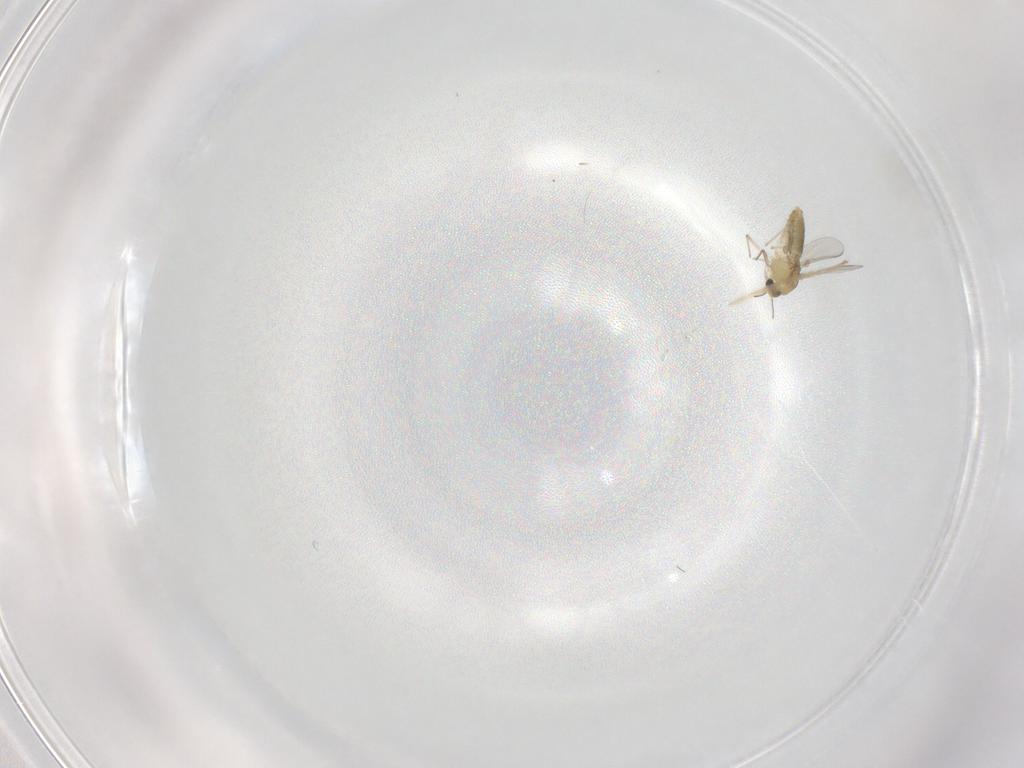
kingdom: Animalia
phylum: Arthropoda
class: Insecta
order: Diptera
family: Chironomidae
